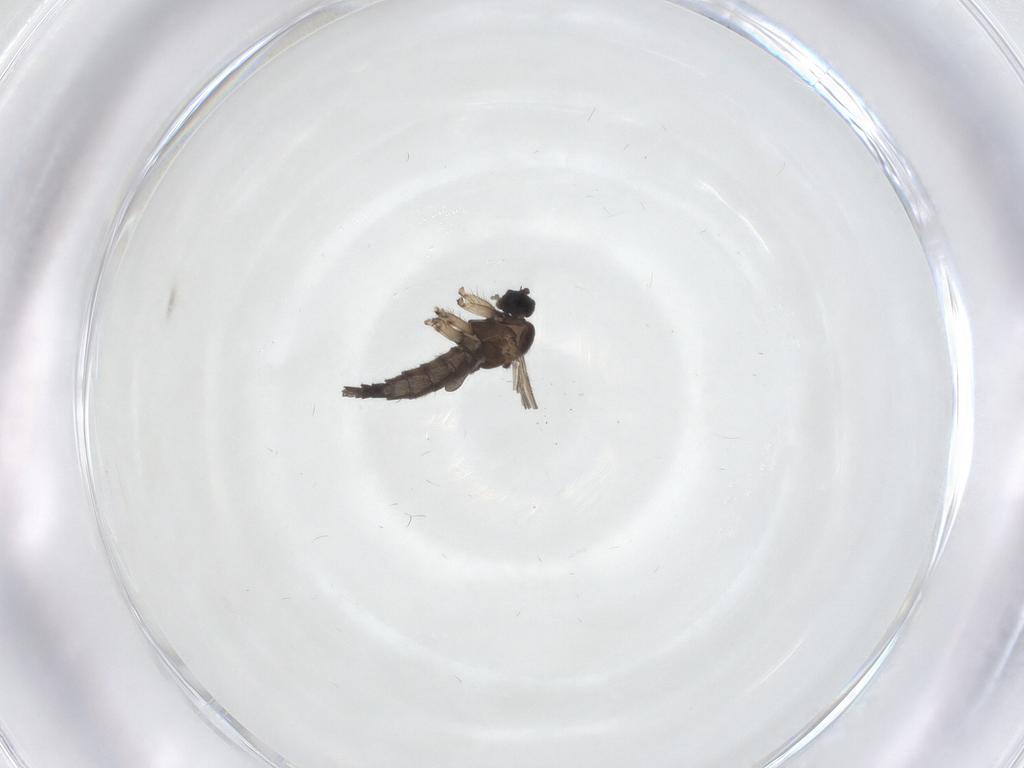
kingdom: Animalia
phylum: Arthropoda
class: Insecta
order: Diptera
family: Sciaridae
